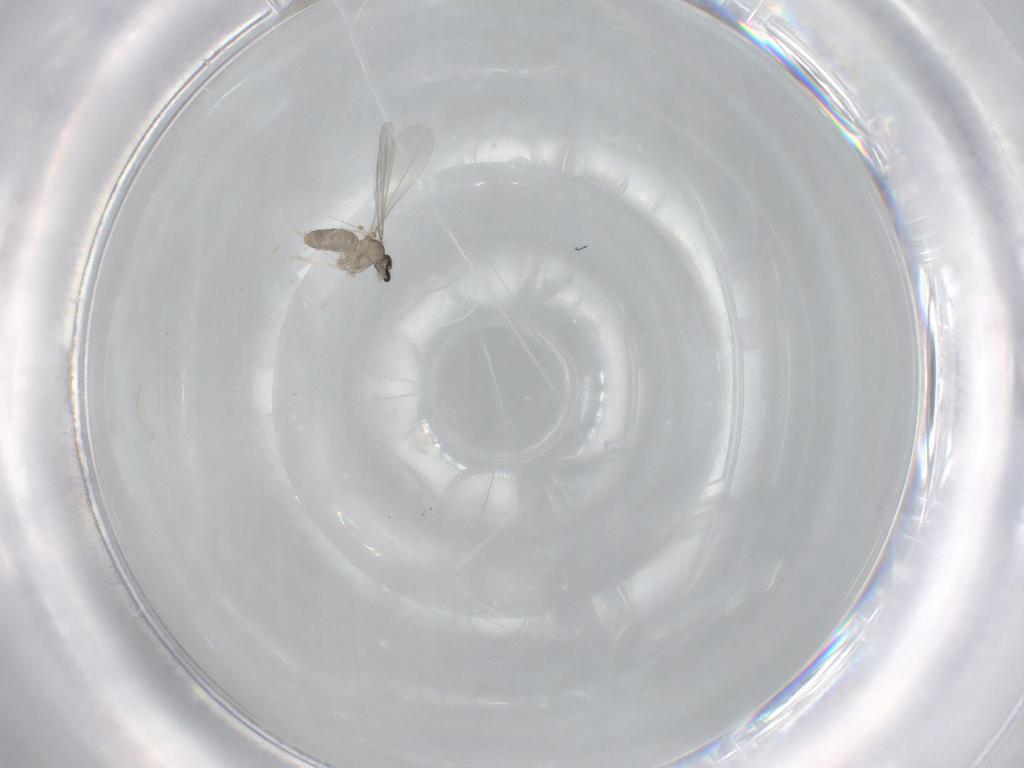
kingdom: Animalia
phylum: Arthropoda
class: Insecta
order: Diptera
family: Cecidomyiidae
